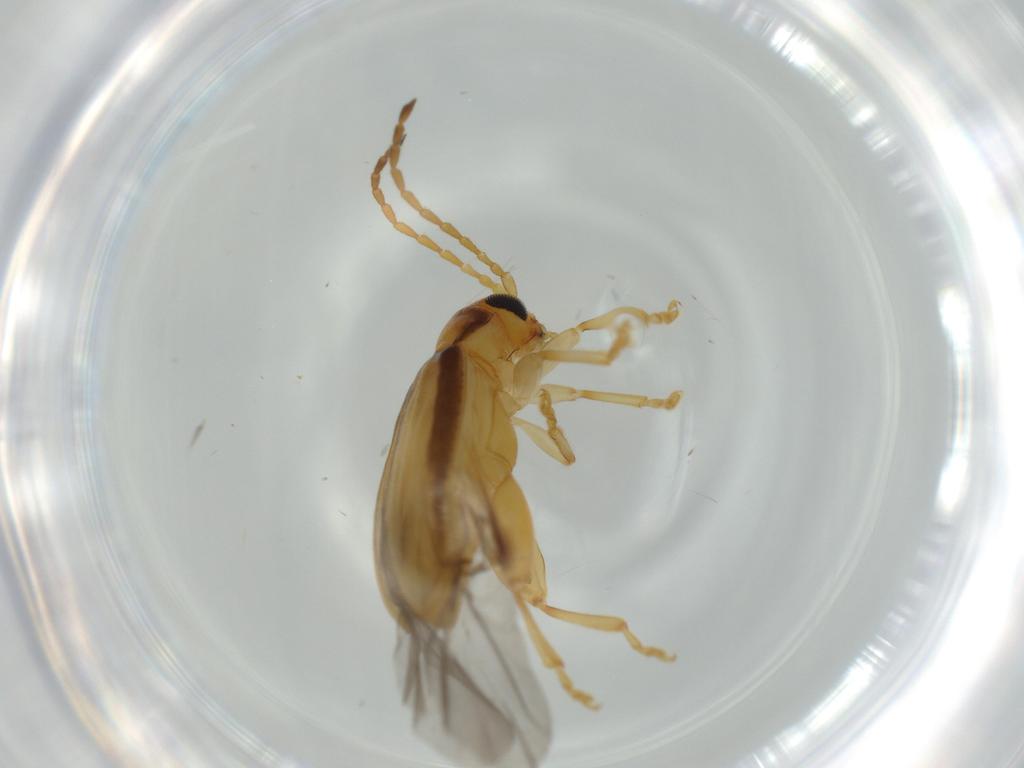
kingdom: Animalia
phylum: Arthropoda
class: Insecta
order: Coleoptera
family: Chrysomelidae
